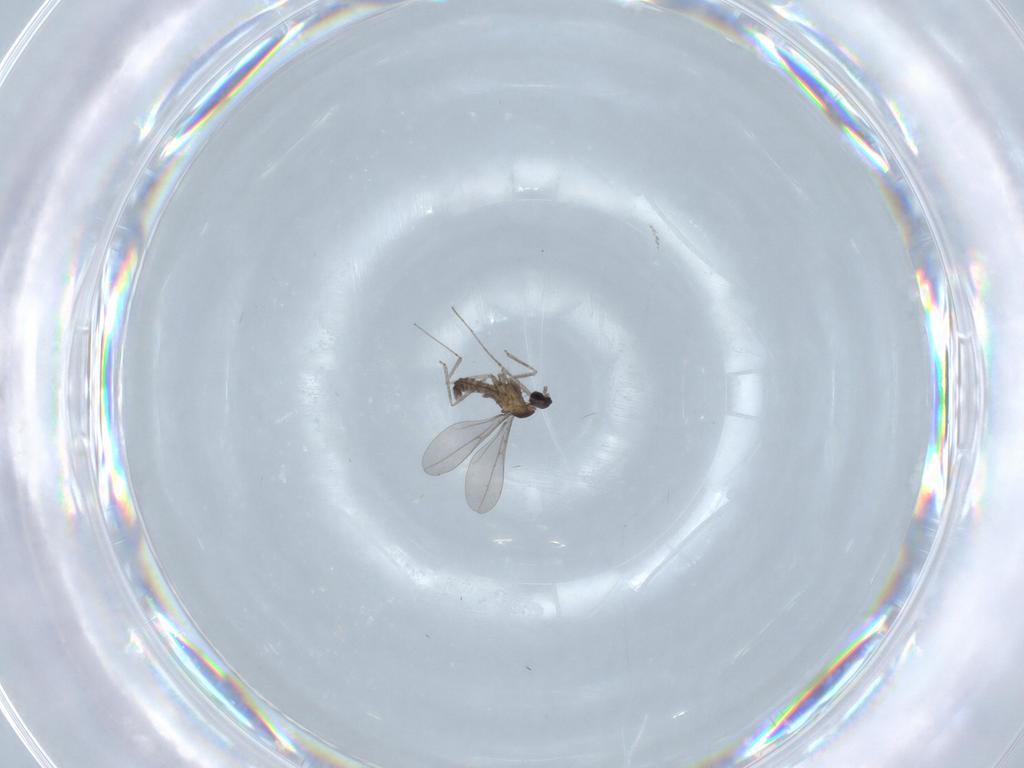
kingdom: Animalia
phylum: Arthropoda
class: Insecta
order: Diptera
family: Cecidomyiidae
